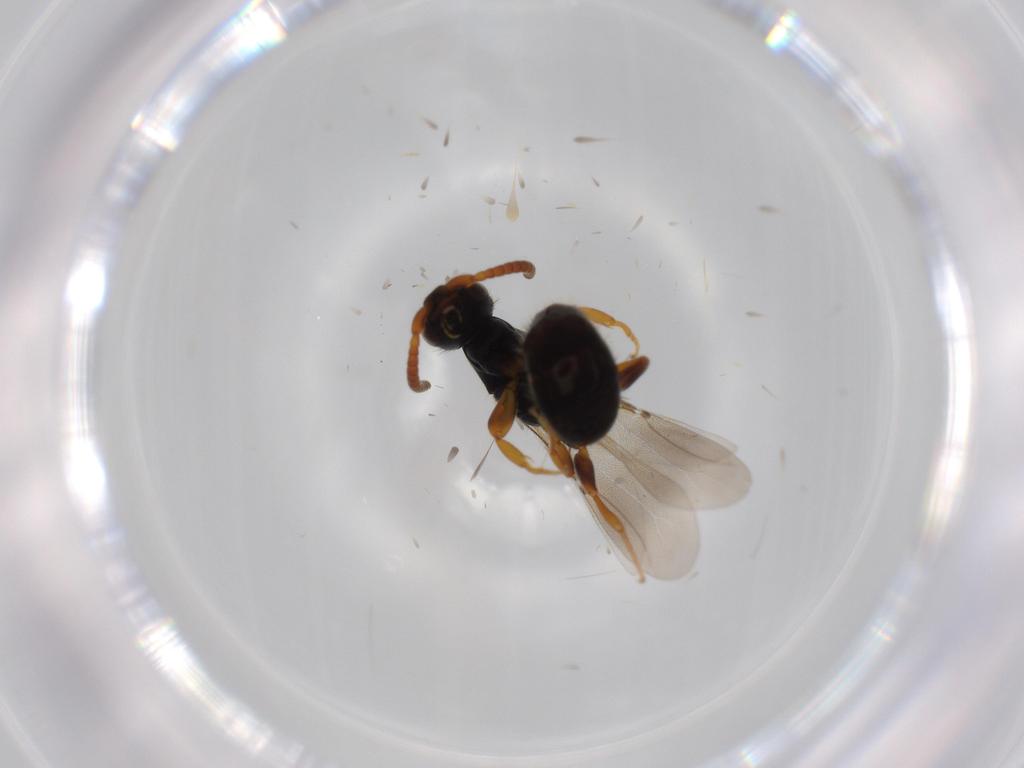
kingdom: Animalia
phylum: Arthropoda
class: Insecta
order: Hymenoptera
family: Bethylidae
